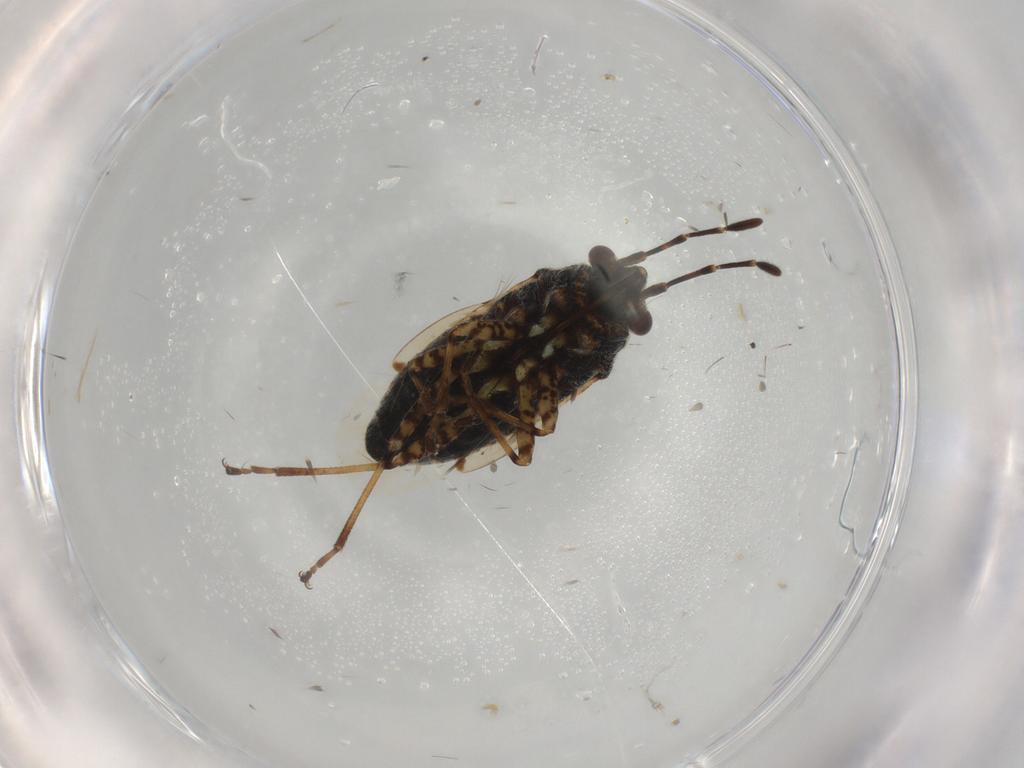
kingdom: Animalia
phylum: Arthropoda
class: Insecta
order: Hemiptera
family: Lygaeidae
